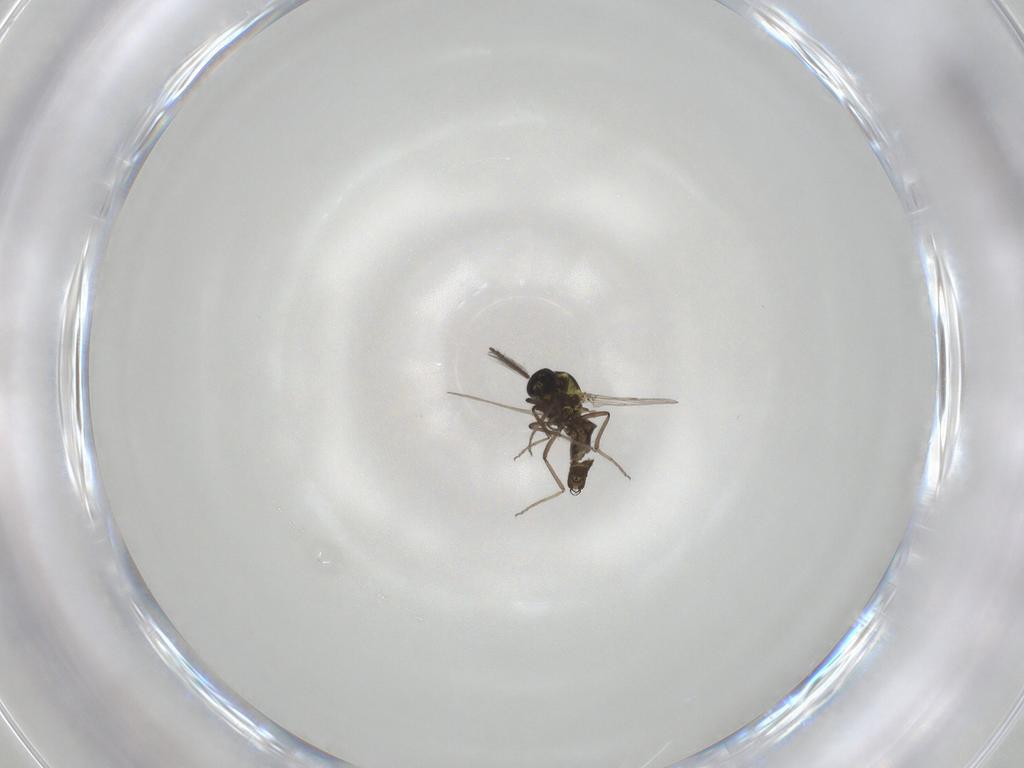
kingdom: Animalia
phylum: Arthropoda
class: Insecta
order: Diptera
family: Ceratopogonidae
